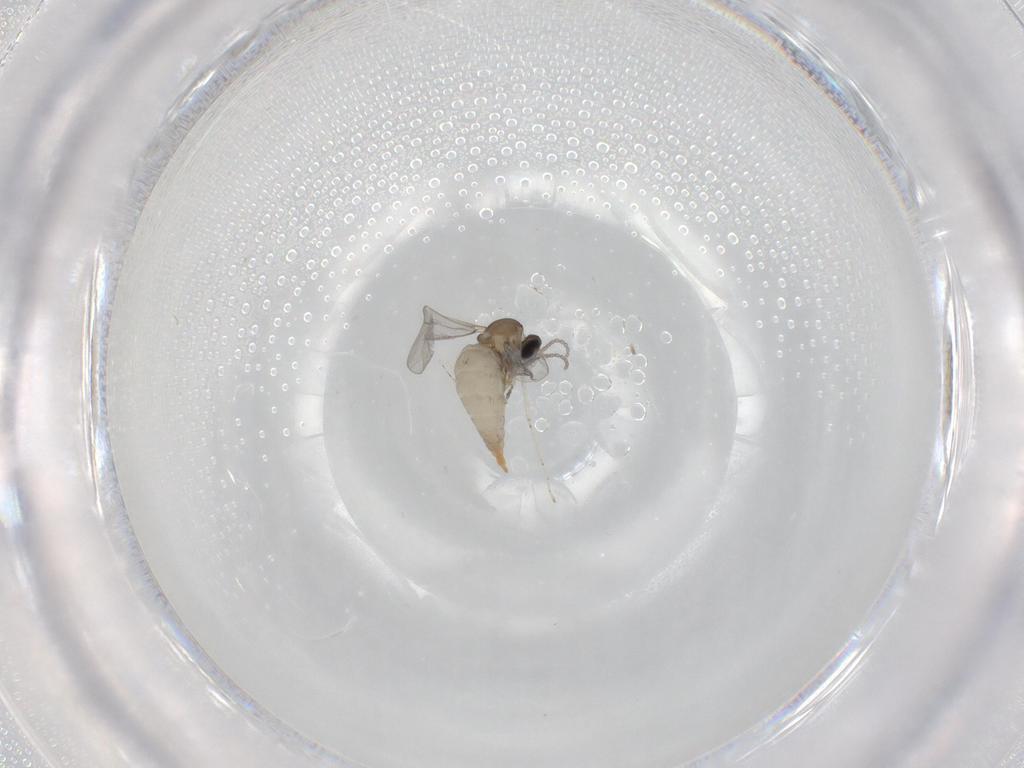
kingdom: Animalia
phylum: Arthropoda
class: Insecta
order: Diptera
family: Cecidomyiidae
